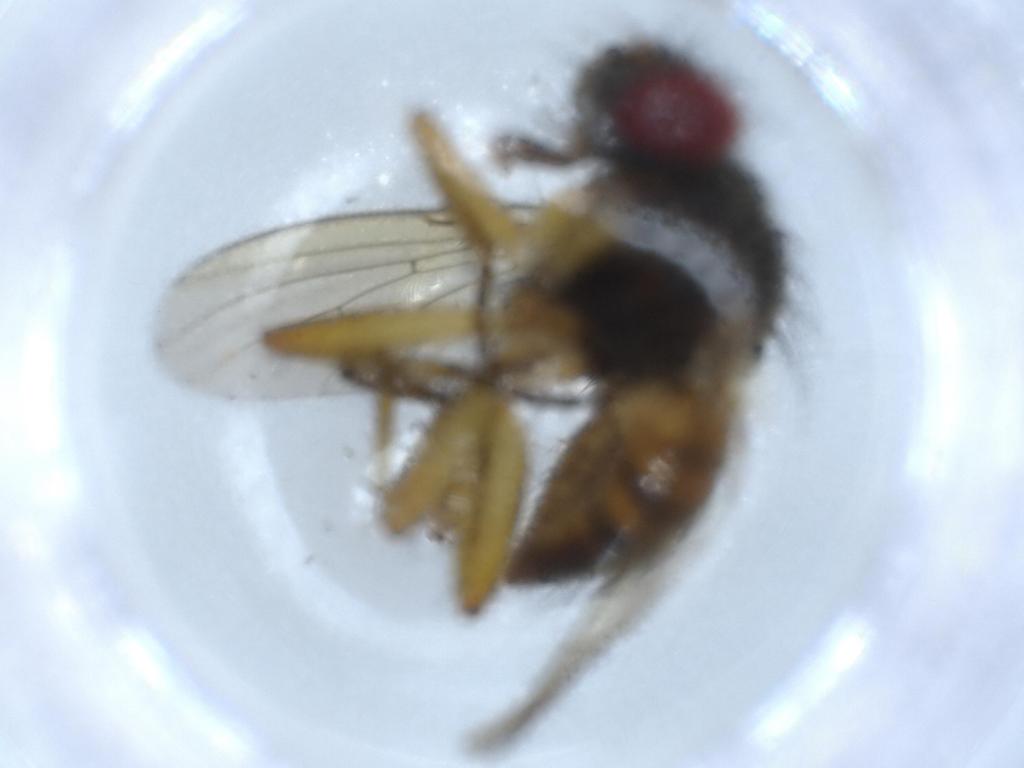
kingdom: Animalia
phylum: Arthropoda
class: Insecta
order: Diptera
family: Muscidae
